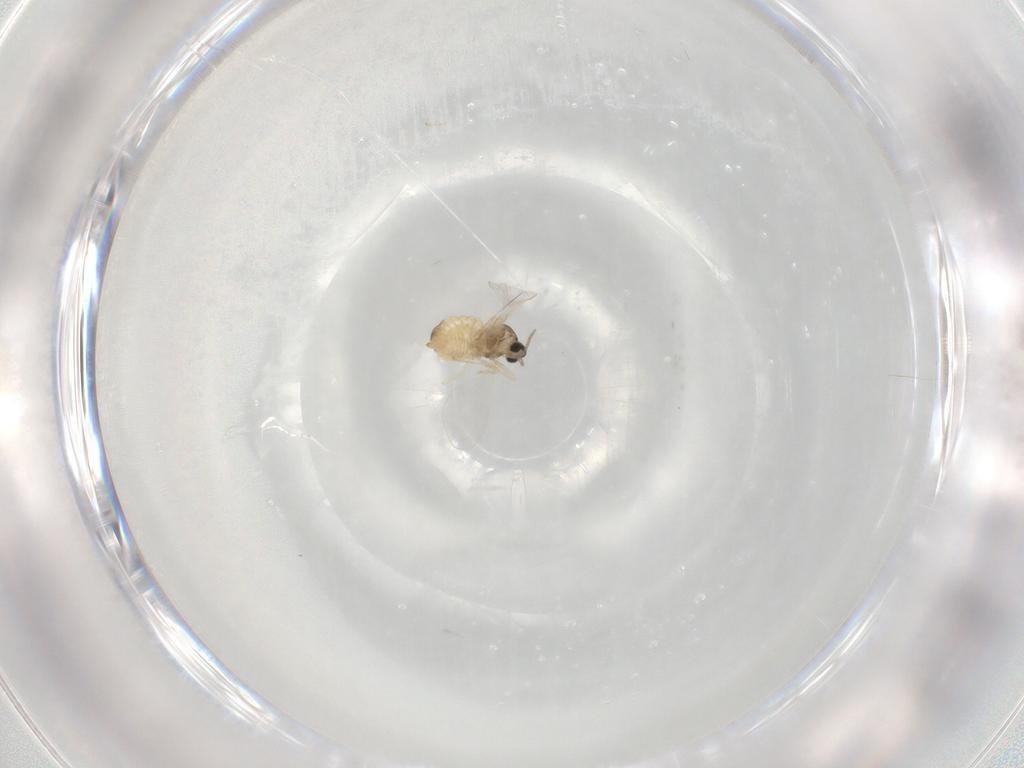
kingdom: Animalia
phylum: Arthropoda
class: Insecta
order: Diptera
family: Cecidomyiidae
